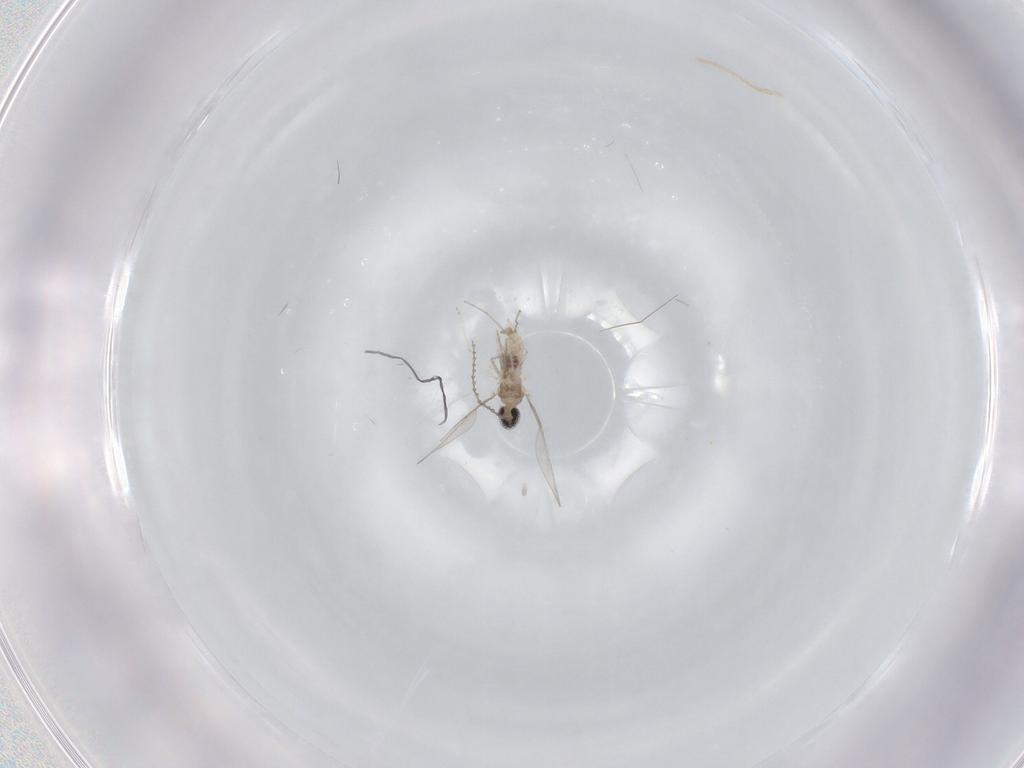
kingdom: Animalia
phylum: Arthropoda
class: Insecta
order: Diptera
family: Cecidomyiidae
